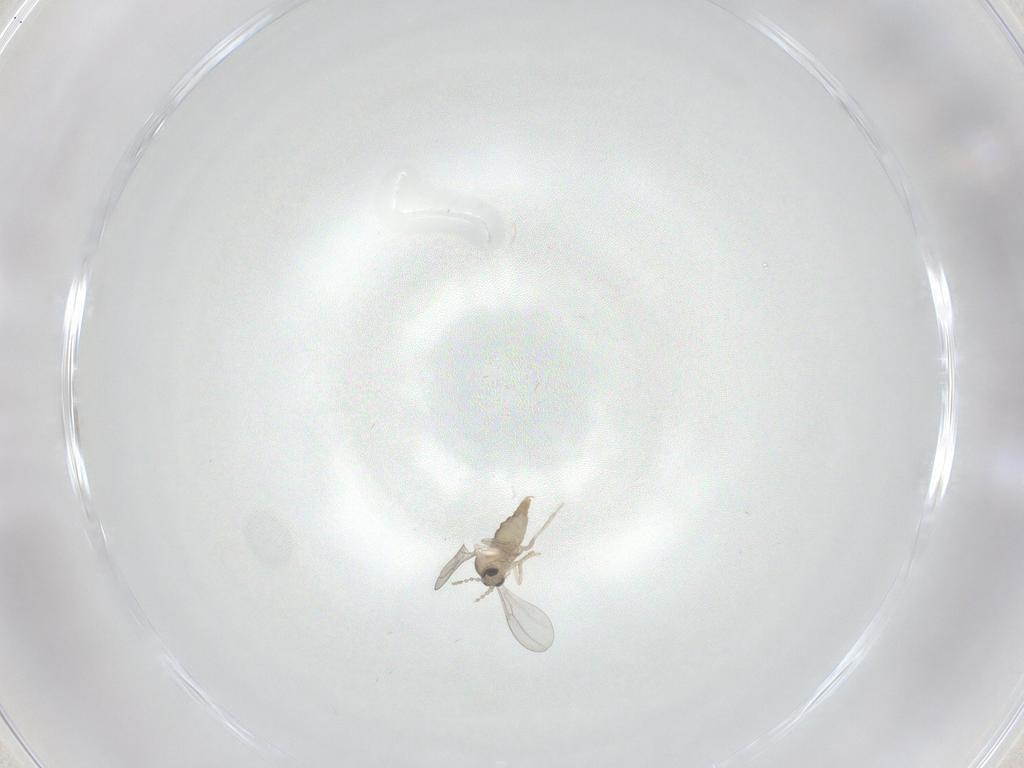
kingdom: Animalia
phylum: Arthropoda
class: Insecta
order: Diptera
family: Cecidomyiidae
